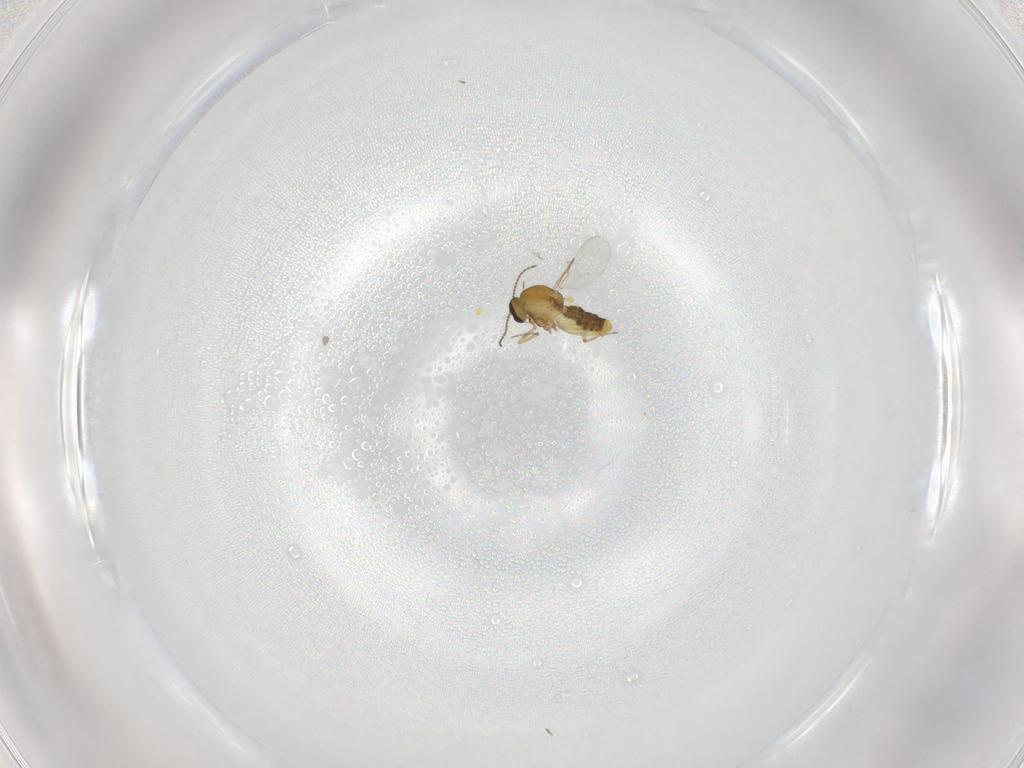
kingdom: Animalia
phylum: Arthropoda
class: Insecta
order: Diptera
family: Ceratopogonidae
